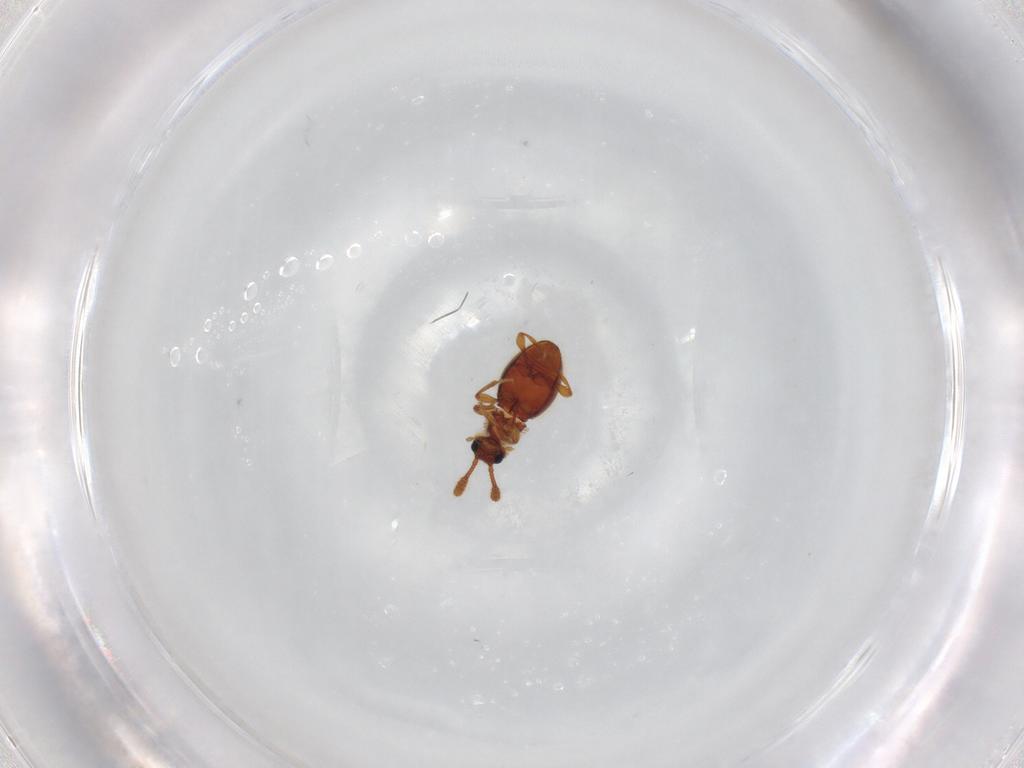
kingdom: Animalia
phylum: Arthropoda
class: Insecta
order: Coleoptera
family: Staphylinidae
